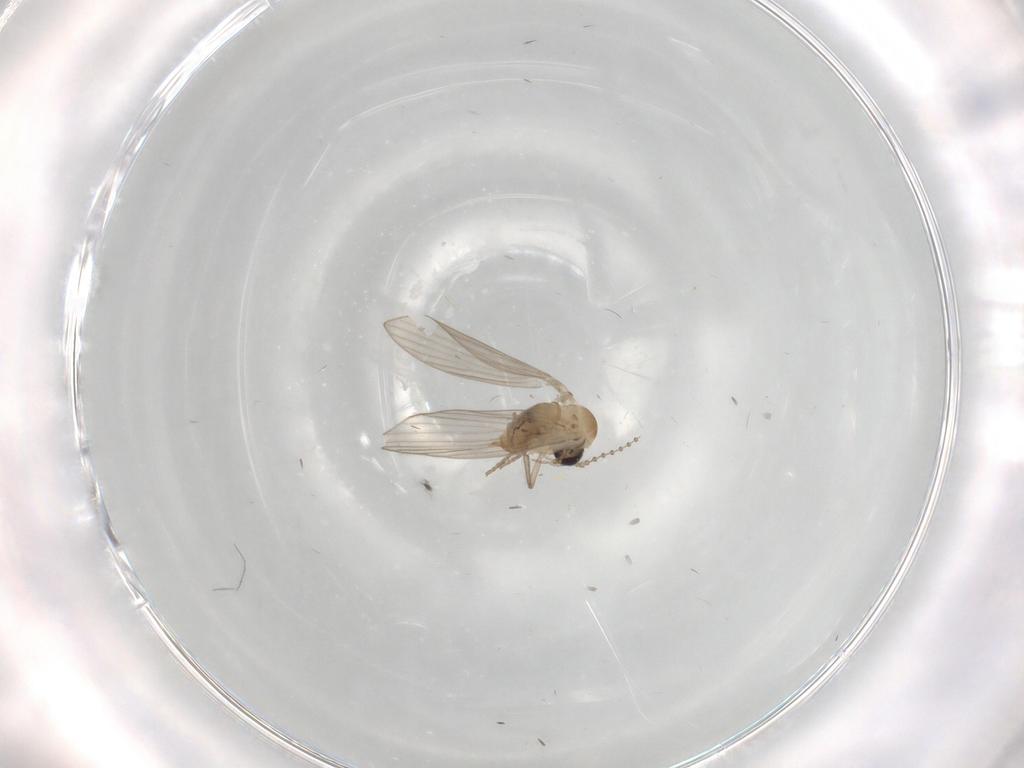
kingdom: Animalia
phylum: Arthropoda
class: Insecta
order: Diptera
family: Psychodidae
